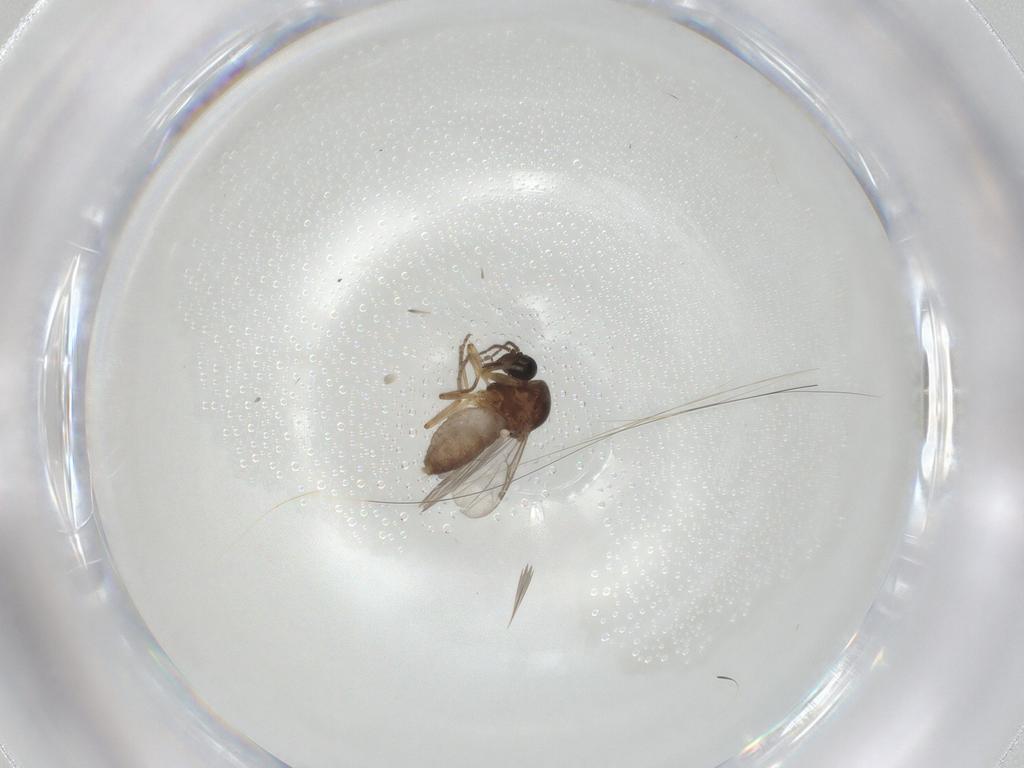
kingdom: Animalia
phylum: Arthropoda
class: Insecta
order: Diptera
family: Ceratopogonidae
